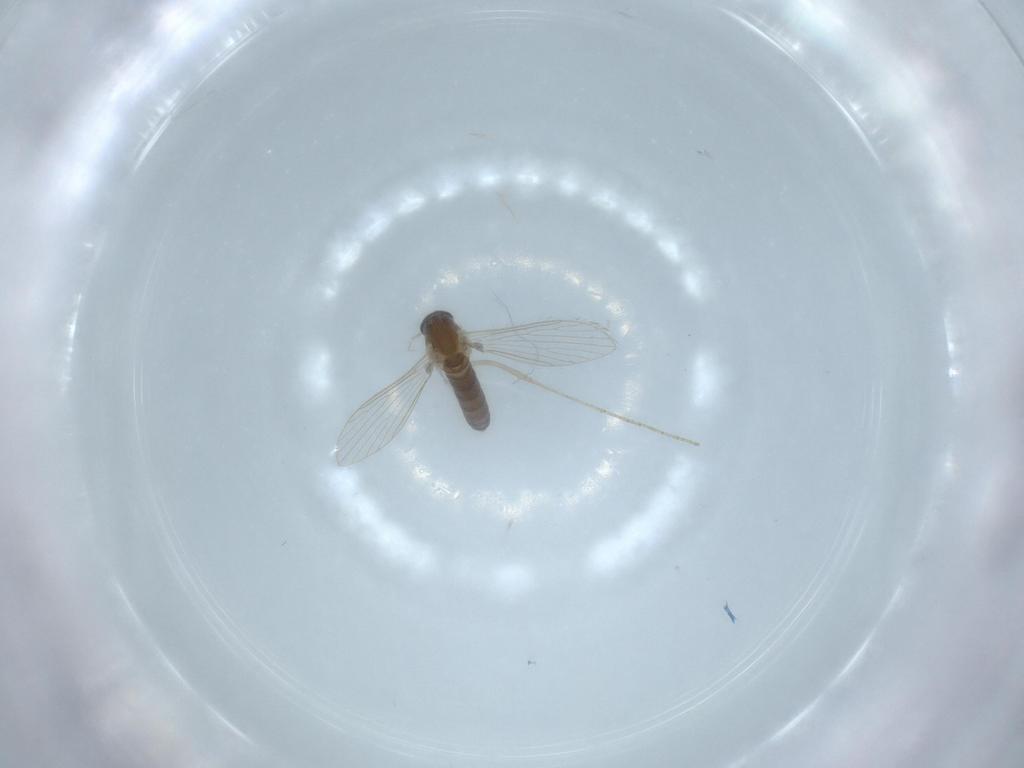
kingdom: Animalia
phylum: Arthropoda
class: Insecta
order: Diptera
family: Psychodidae
